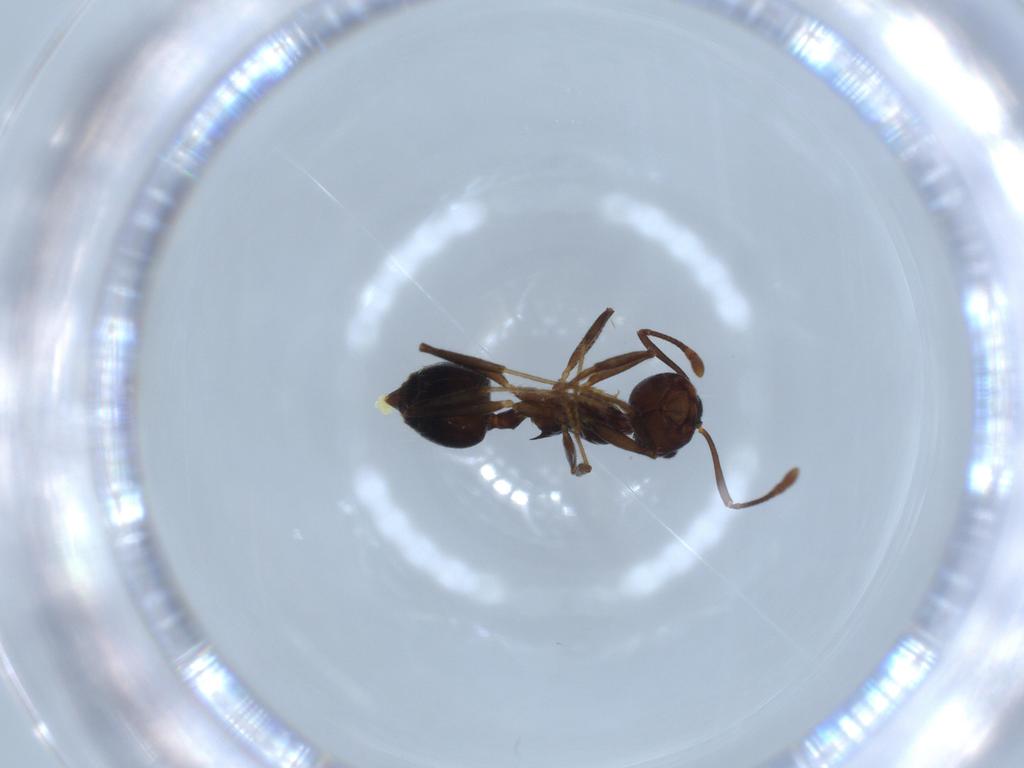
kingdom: Animalia
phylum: Arthropoda
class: Insecta
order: Hymenoptera
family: Formicidae
